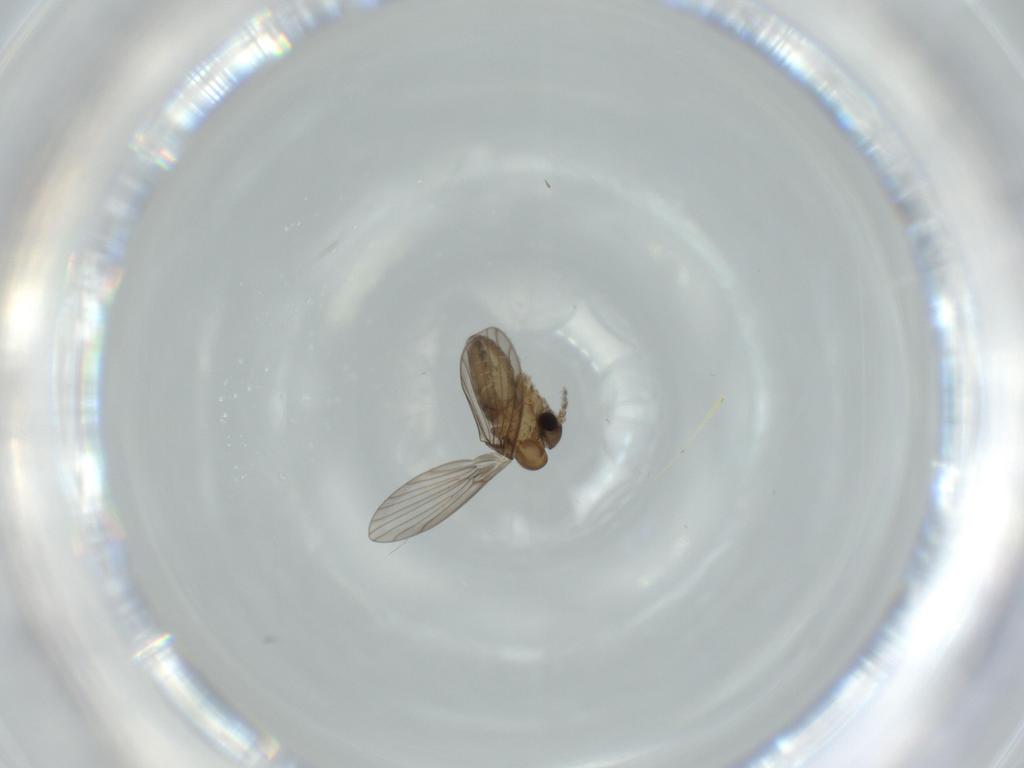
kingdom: Animalia
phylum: Arthropoda
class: Insecta
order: Diptera
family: Psychodidae
